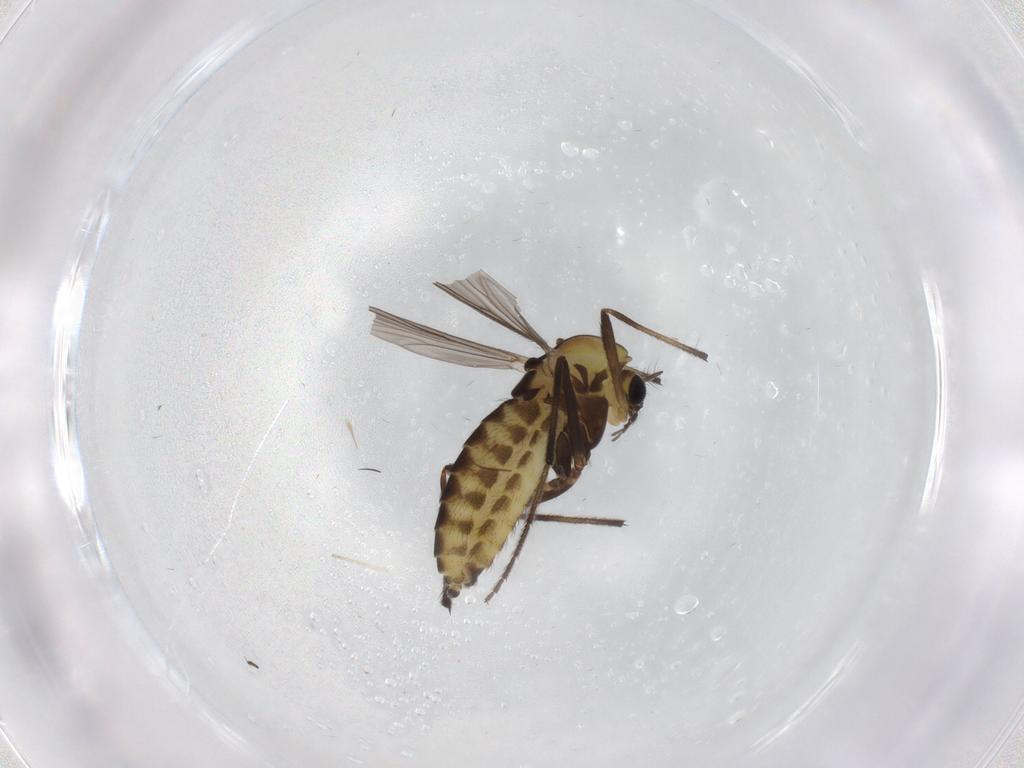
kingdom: Animalia
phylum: Arthropoda
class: Insecta
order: Diptera
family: Chironomidae
